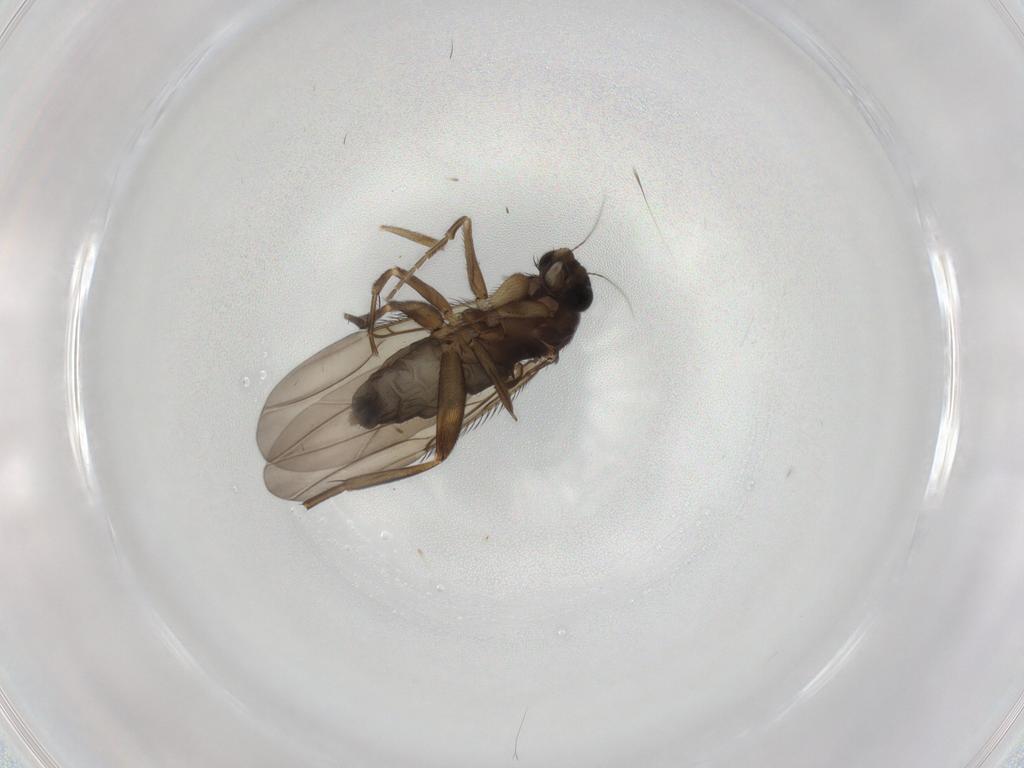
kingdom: Animalia
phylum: Arthropoda
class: Insecta
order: Diptera
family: Phoridae
